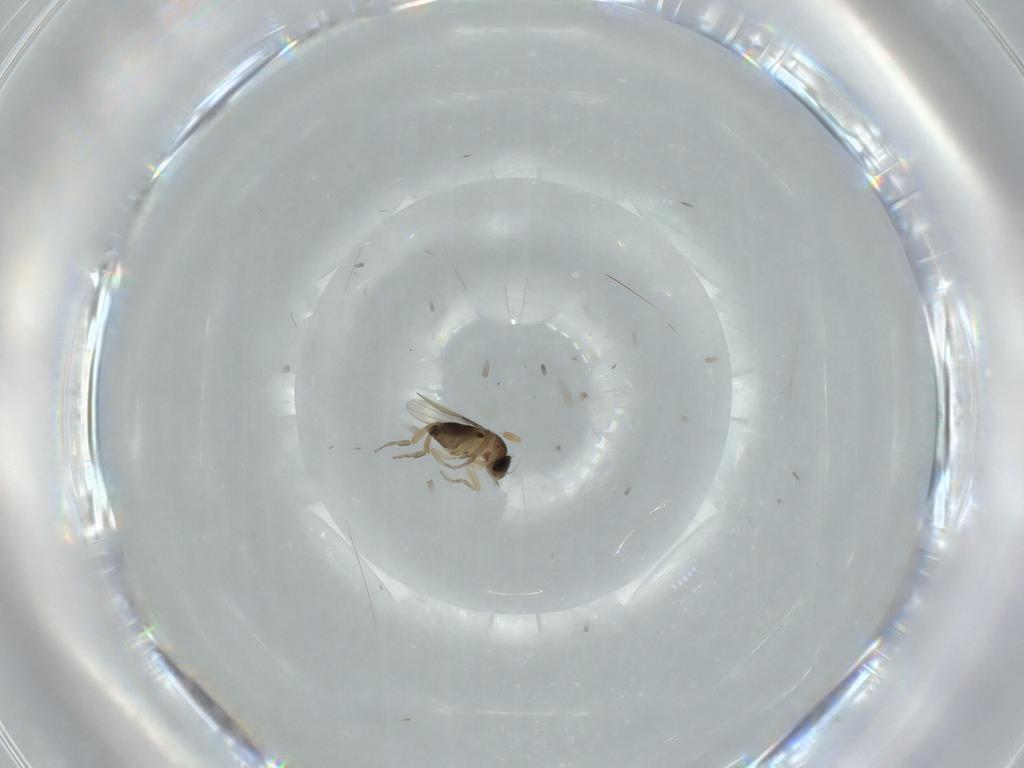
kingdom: Animalia
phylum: Arthropoda
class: Insecta
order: Diptera
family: Phoridae
